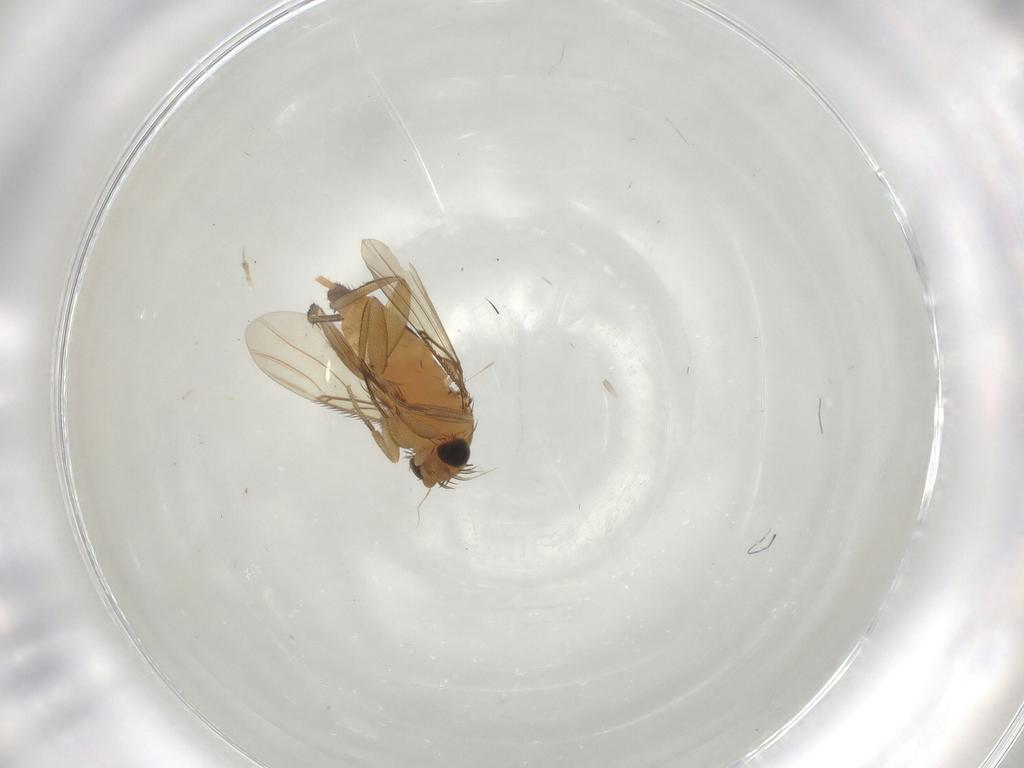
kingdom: Animalia
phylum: Arthropoda
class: Insecta
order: Diptera
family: Phoridae
